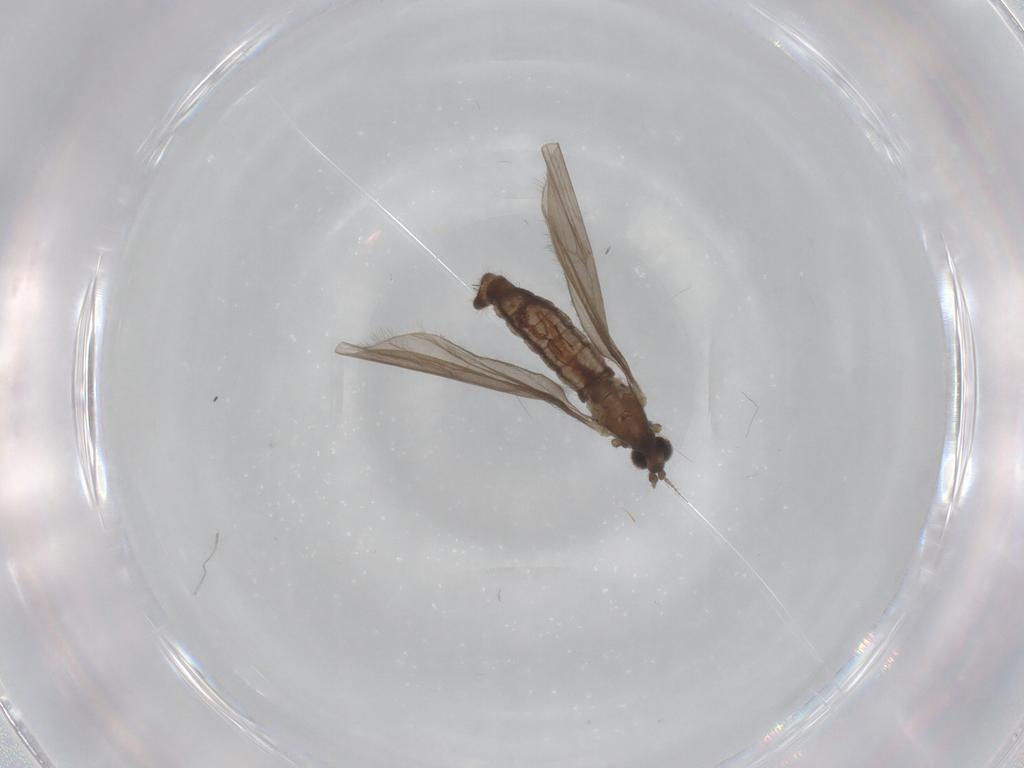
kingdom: Animalia
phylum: Arthropoda
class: Insecta
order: Diptera
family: Limoniidae
